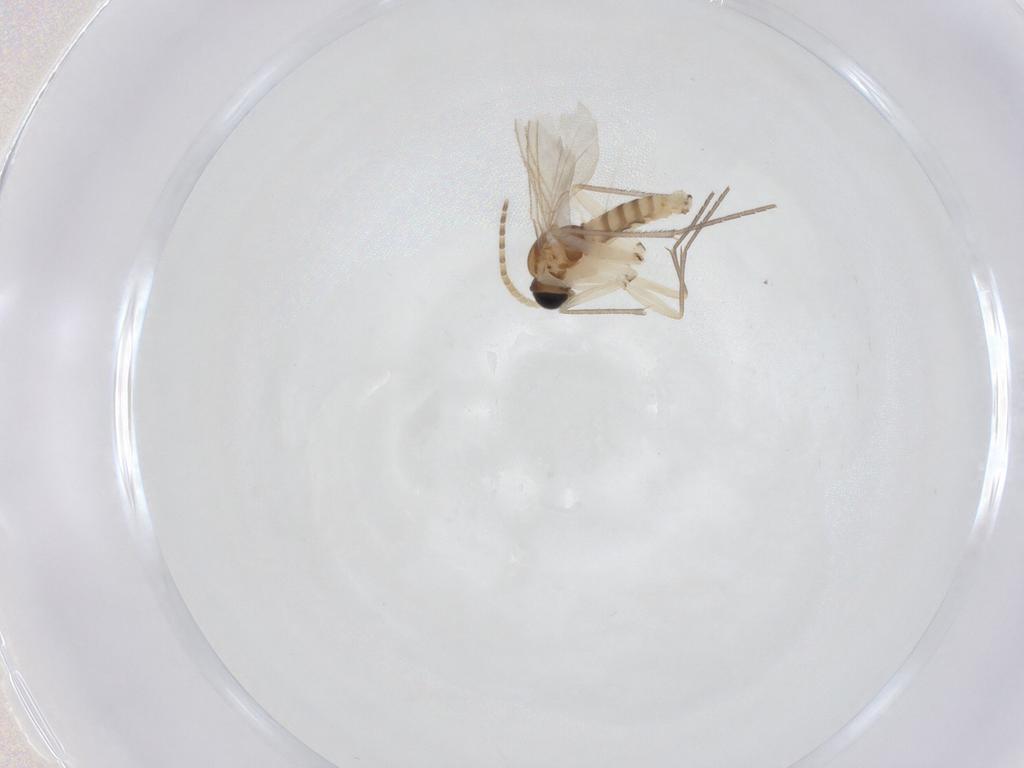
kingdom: Animalia
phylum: Arthropoda
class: Insecta
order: Diptera
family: Sciaridae
